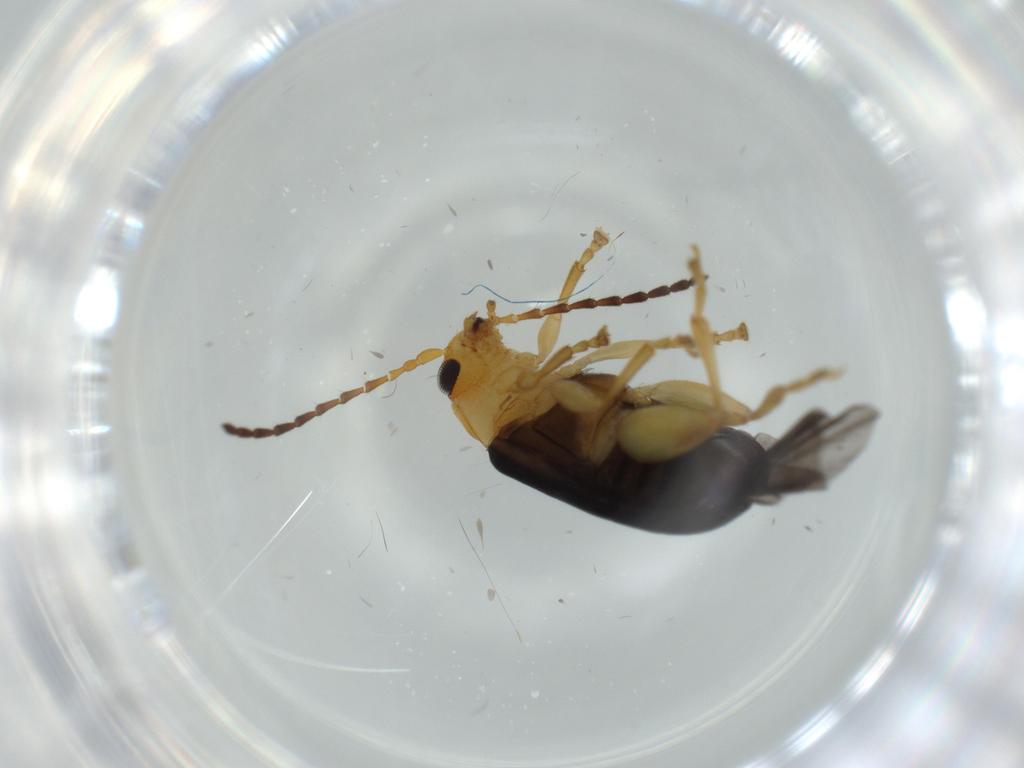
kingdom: Animalia
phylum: Arthropoda
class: Insecta
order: Coleoptera
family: Chrysomelidae
